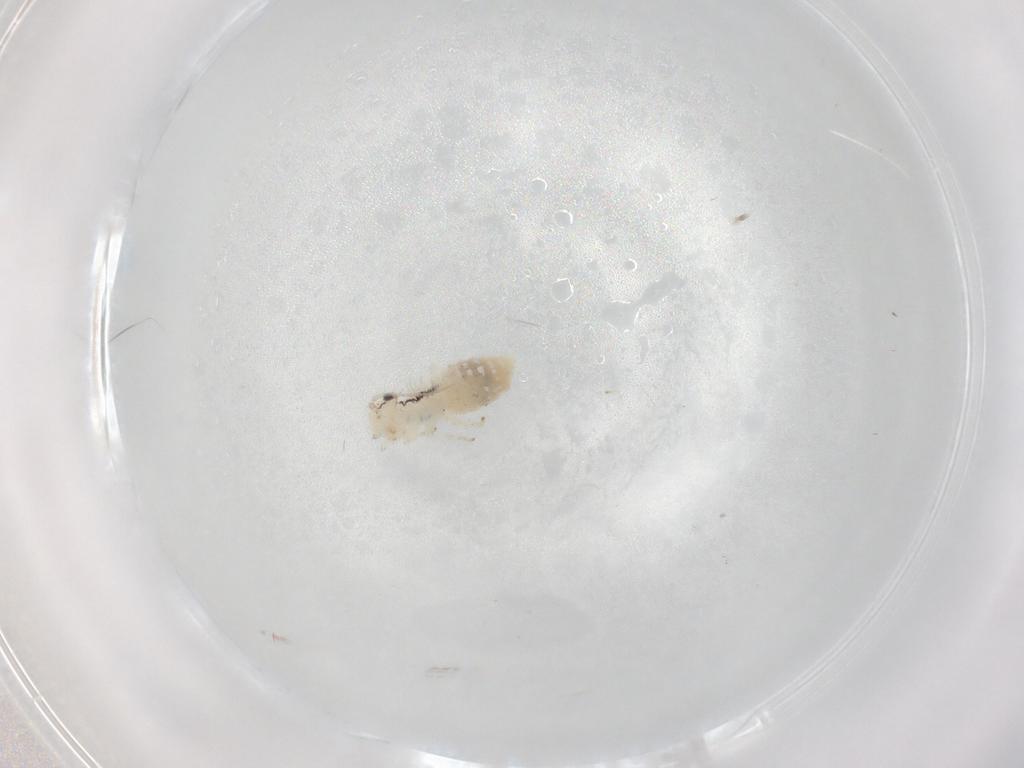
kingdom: Animalia
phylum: Arthropoda
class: Insecta
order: Psocodea
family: Caeciliusidae
